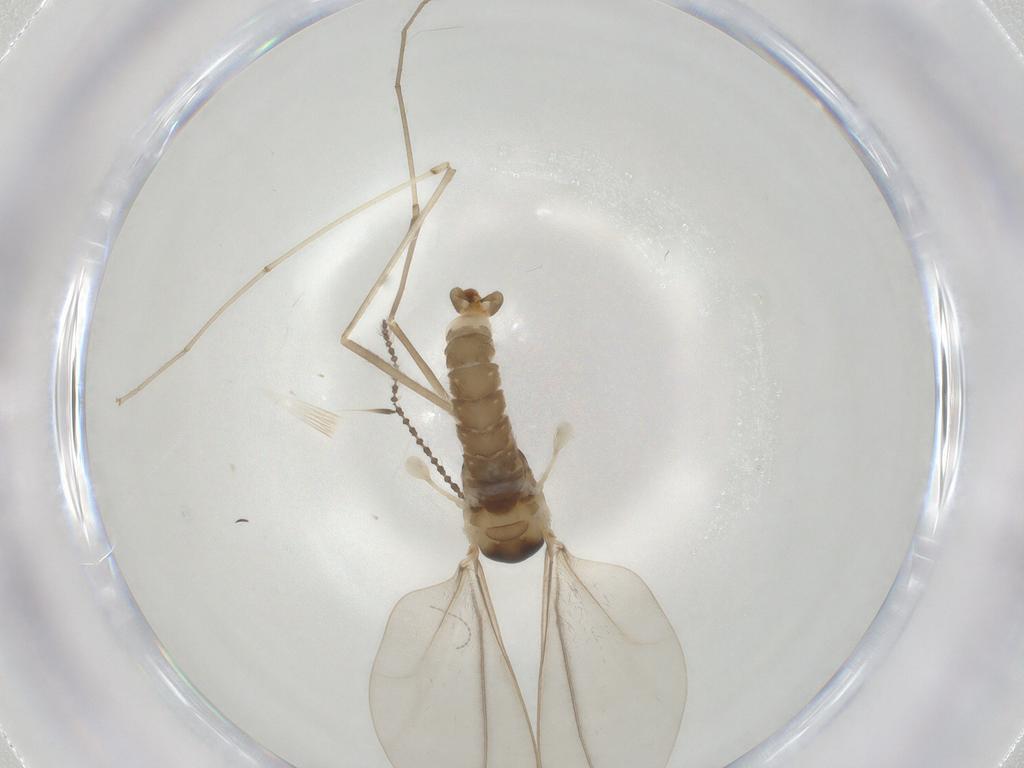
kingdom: Animalia
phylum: Arthropoda
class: Insecta
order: Diptera
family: Cecidomyiidae
